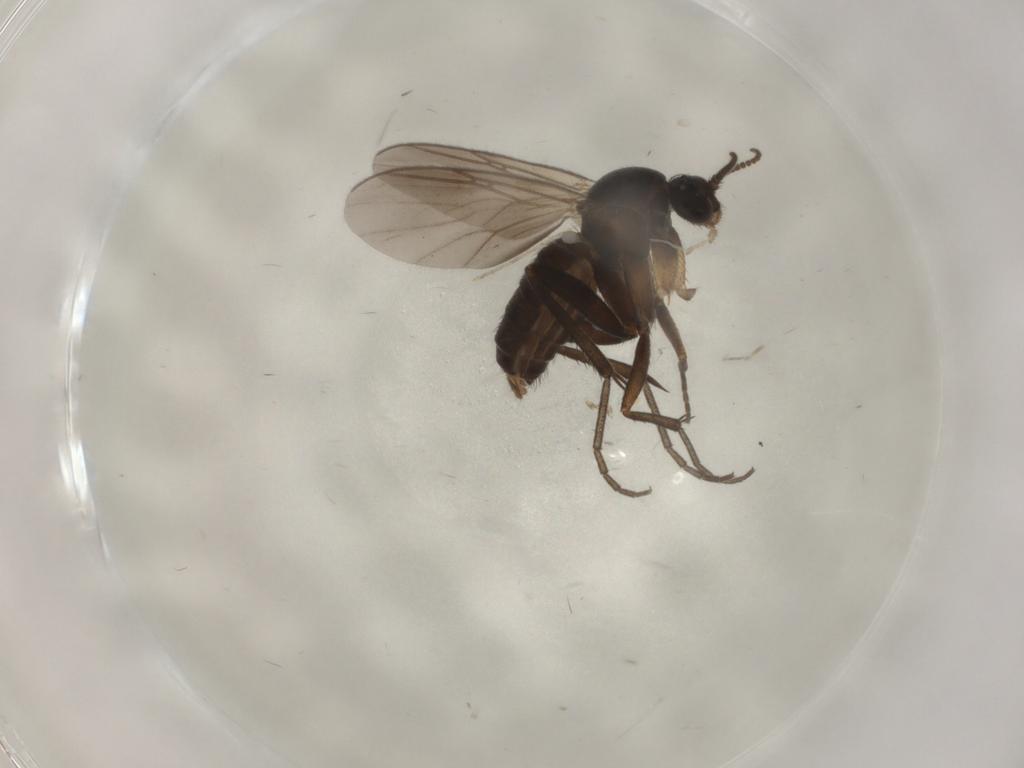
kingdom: Animalia
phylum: Arthropoda
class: Insecta
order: Diptera
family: Mycetophilidae
